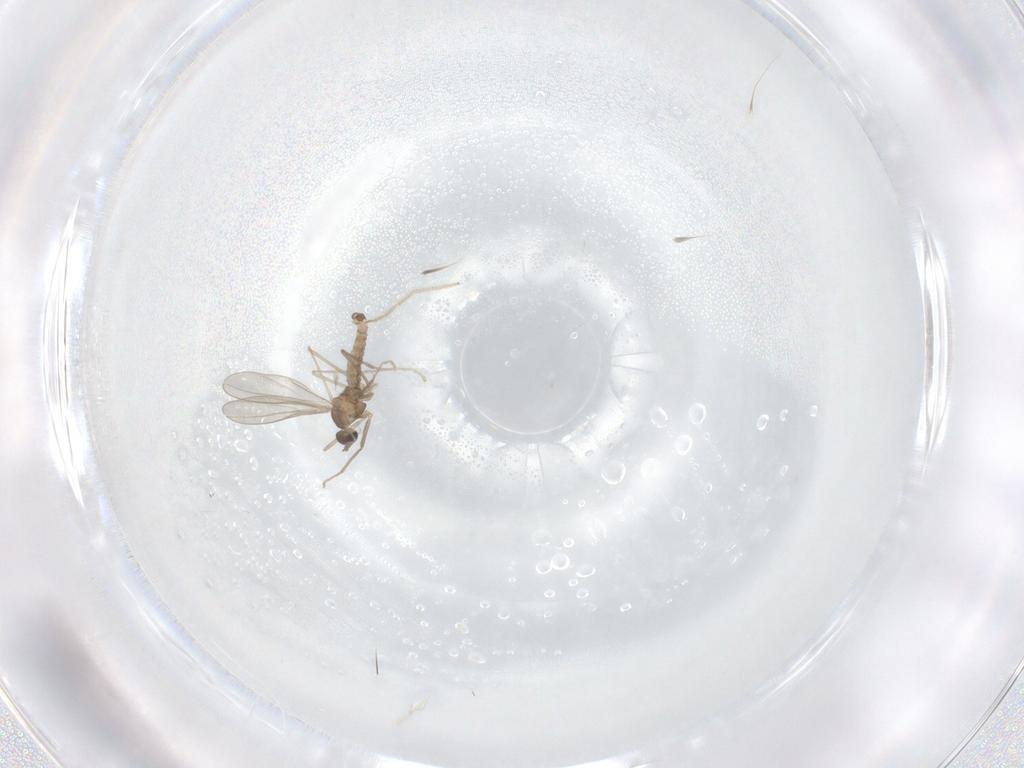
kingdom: Animalia
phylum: Arthropoda
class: Insecta
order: Diptera
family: Cecidomyiidae
